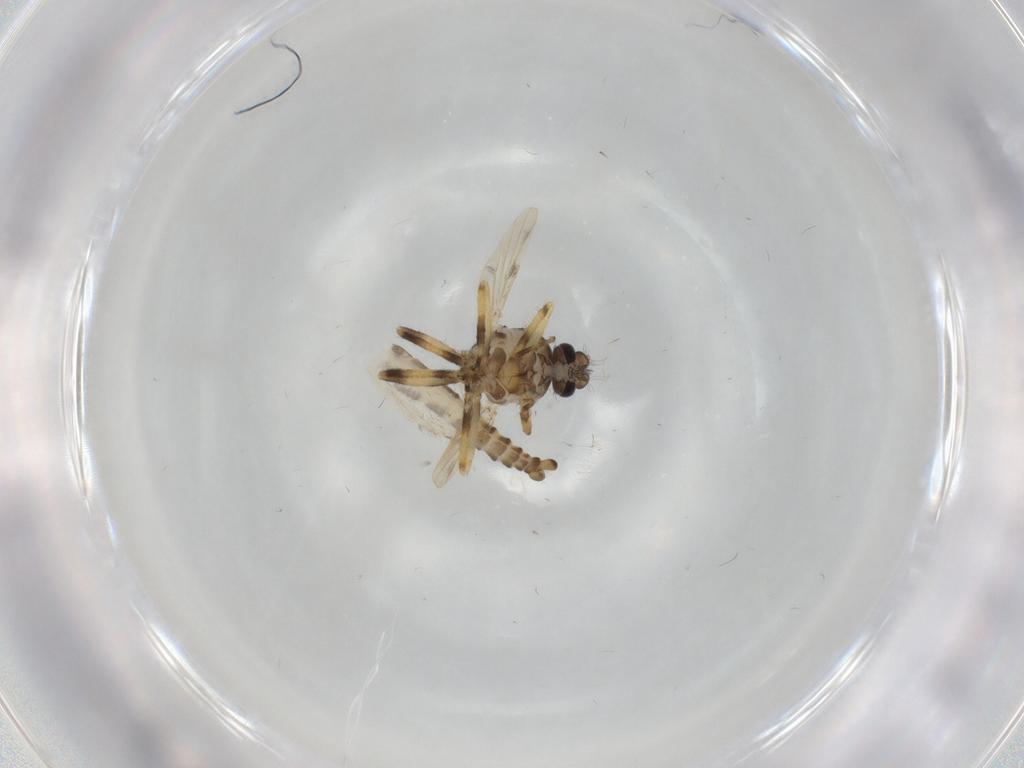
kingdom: Animalia
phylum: Arthropoda
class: Insecta
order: Diptera
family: Ceratopogonidae
